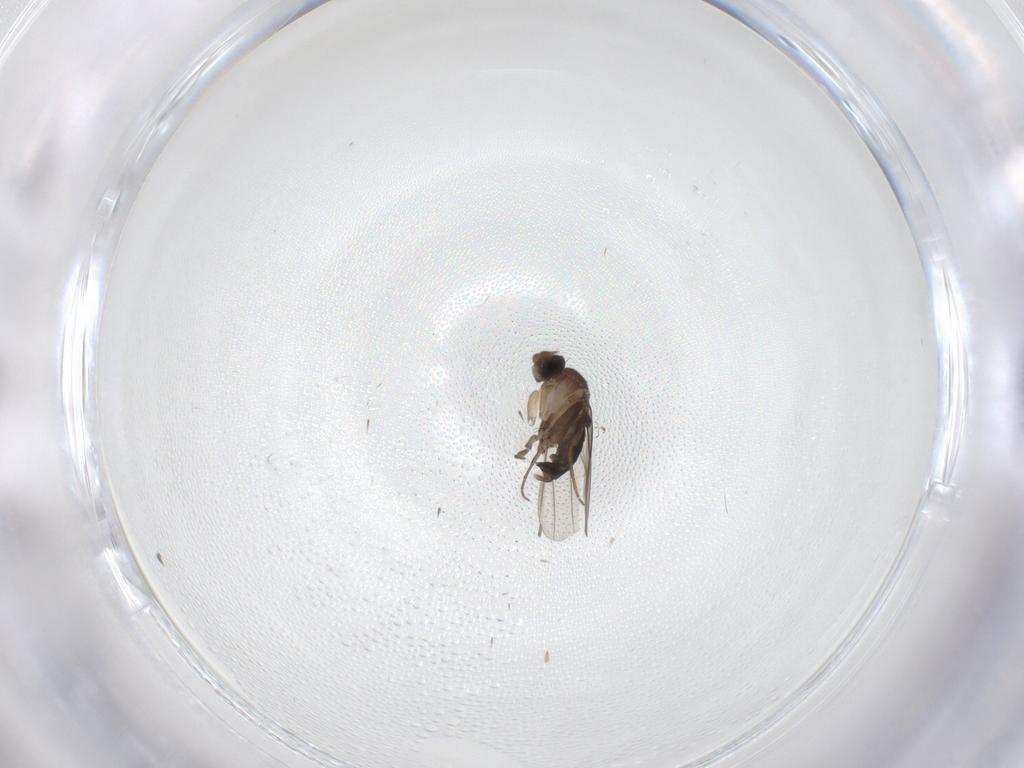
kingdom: Animalia
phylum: Arthropoda
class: Insecta
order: Diptera
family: Phoridae
